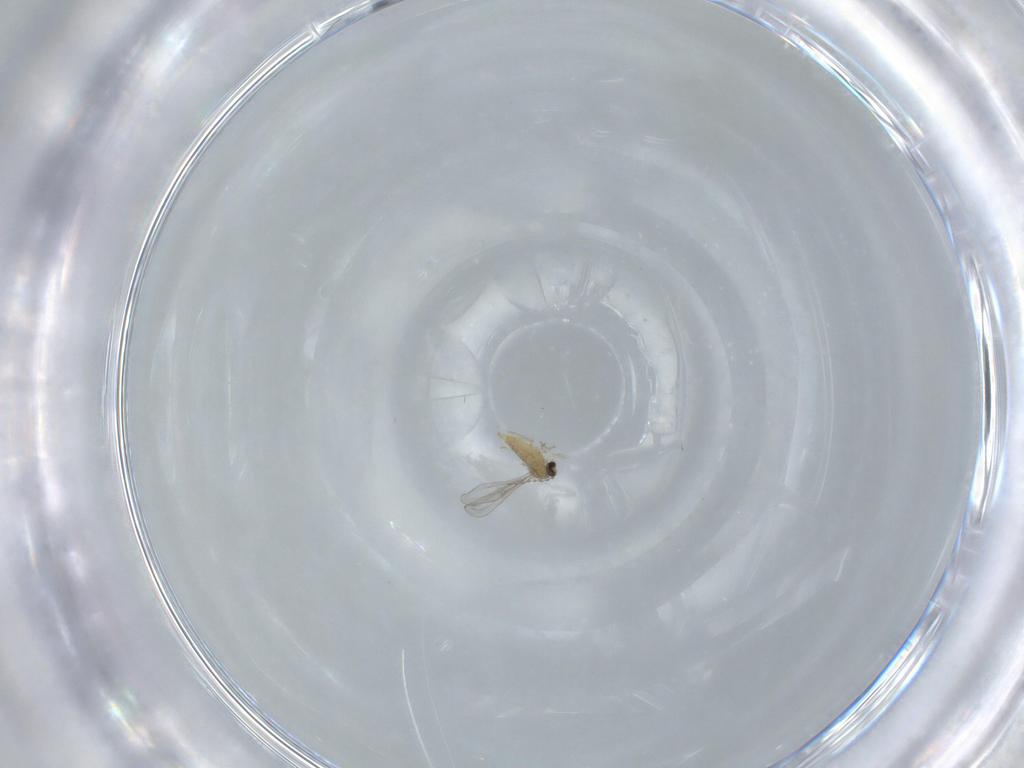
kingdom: Animalia
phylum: Arthropoda
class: Insecta
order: Diptera
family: Cecidomyiidae
